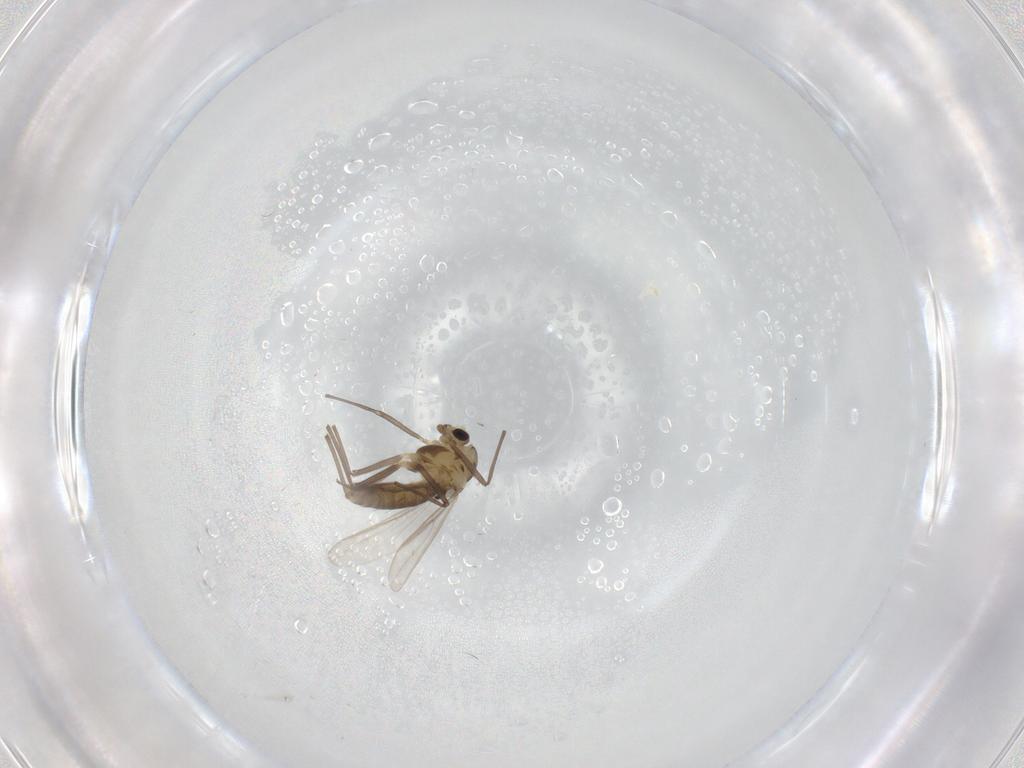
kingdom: Animalia
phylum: Arthropoda
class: Insecta
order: Diptera
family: Chironomidae
